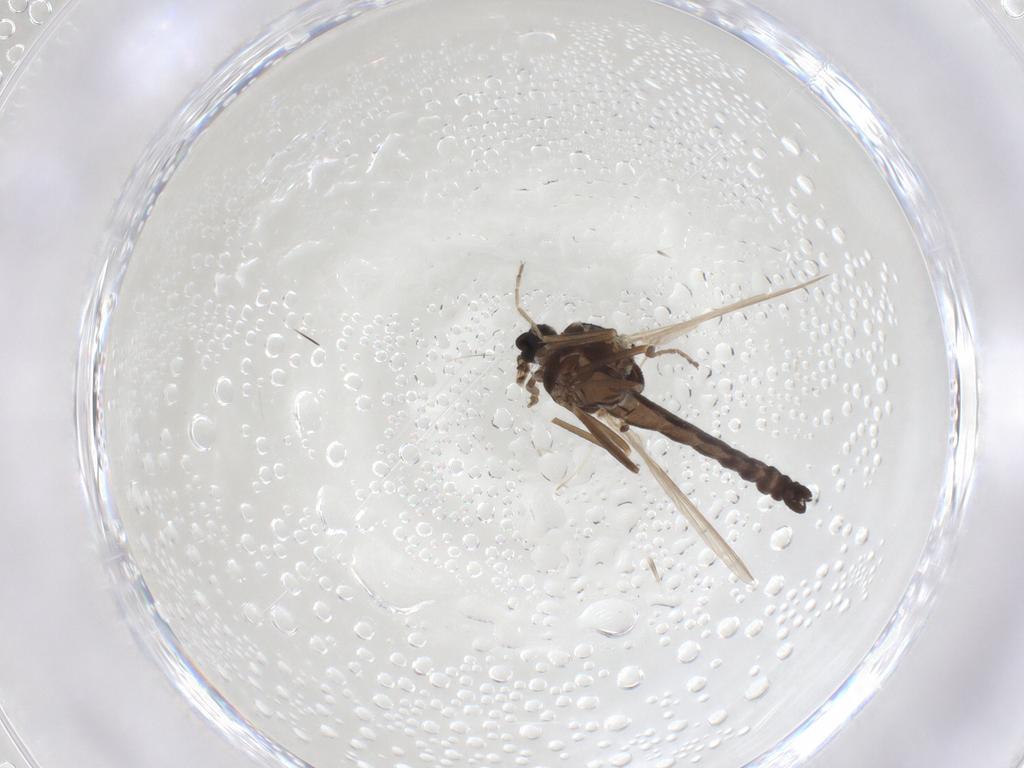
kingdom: Animalia
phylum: Arthropoda
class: Insecta
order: Diptera
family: Ceratopogonidae
